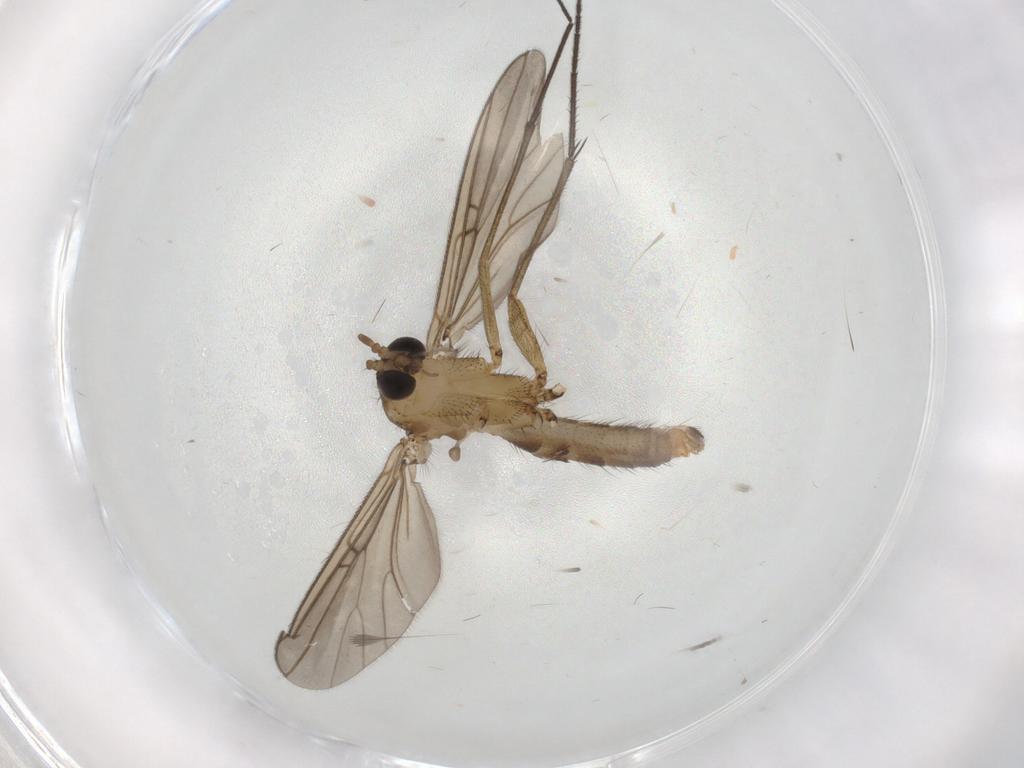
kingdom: Animalia
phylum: Arthropoda
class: Insecta
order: Diptera
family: Mycetophilidae
